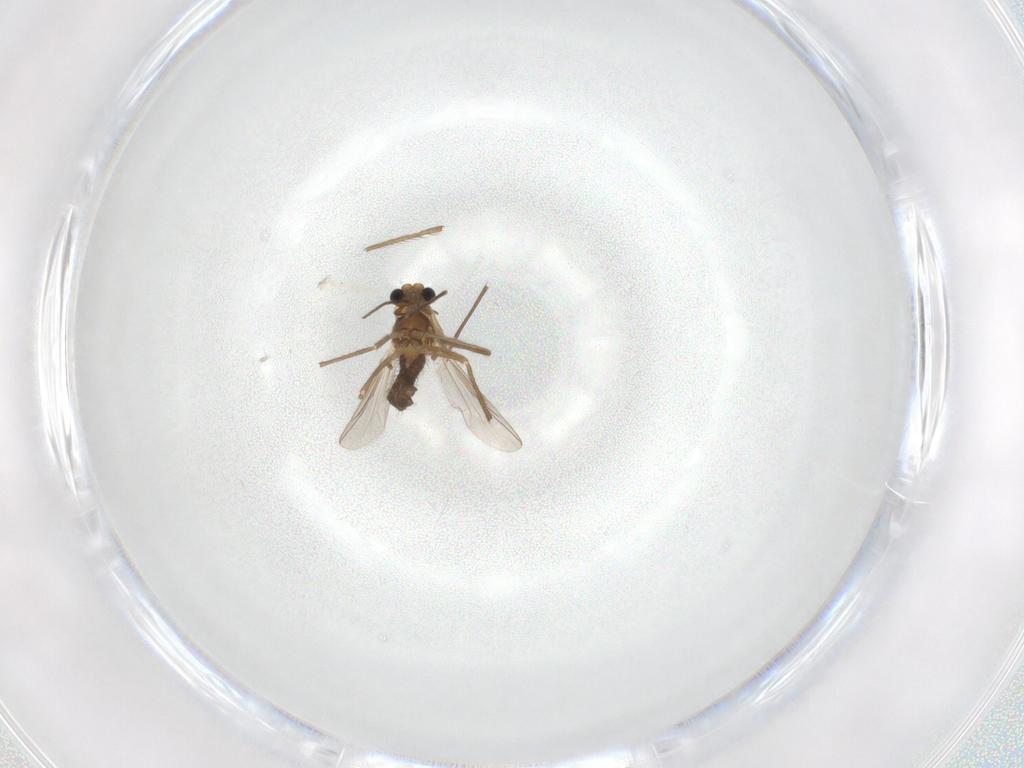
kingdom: Animalia
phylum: Arthropoda
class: Insecta
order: Diptera
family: Chironomidae
